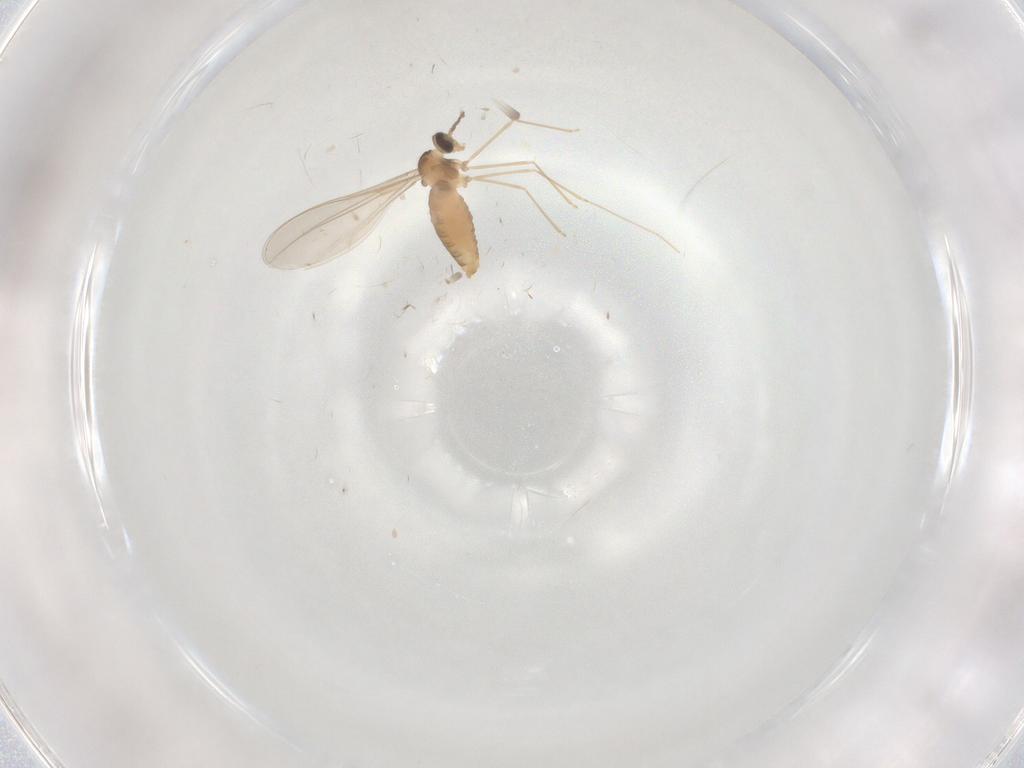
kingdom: Animalia
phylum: Arthropoda
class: Insecta
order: Diptera
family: Cecidomyiidae
